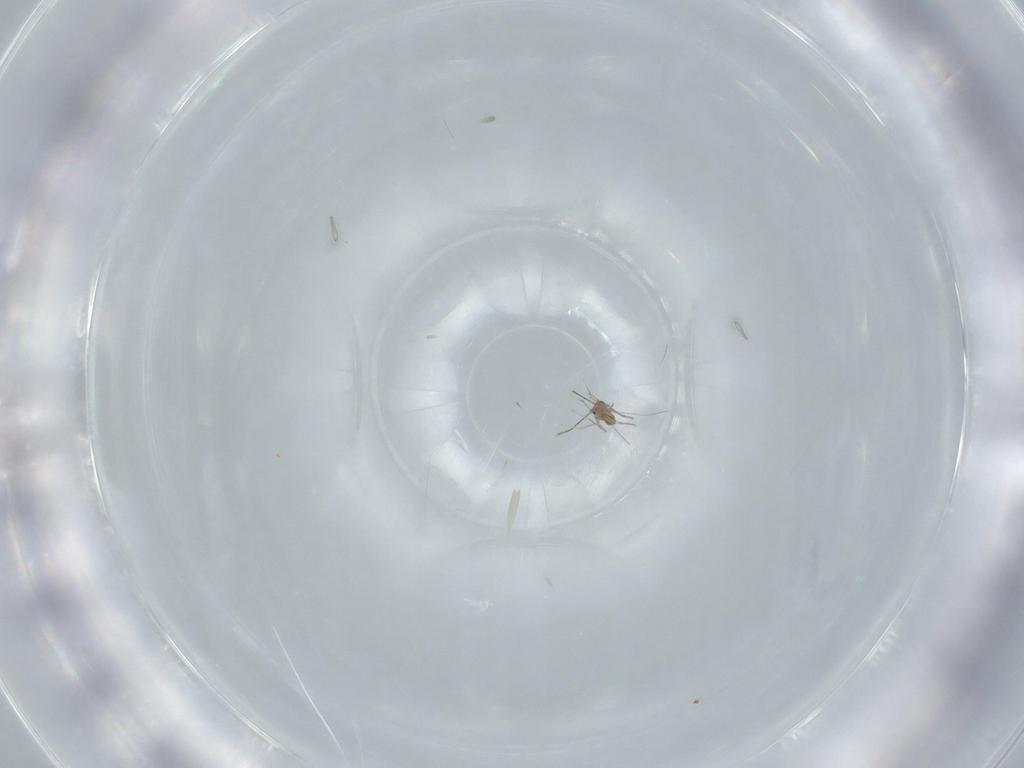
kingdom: Animalia
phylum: Arthropoda
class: Insecta
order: Hymenoptera
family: Mymaridae
